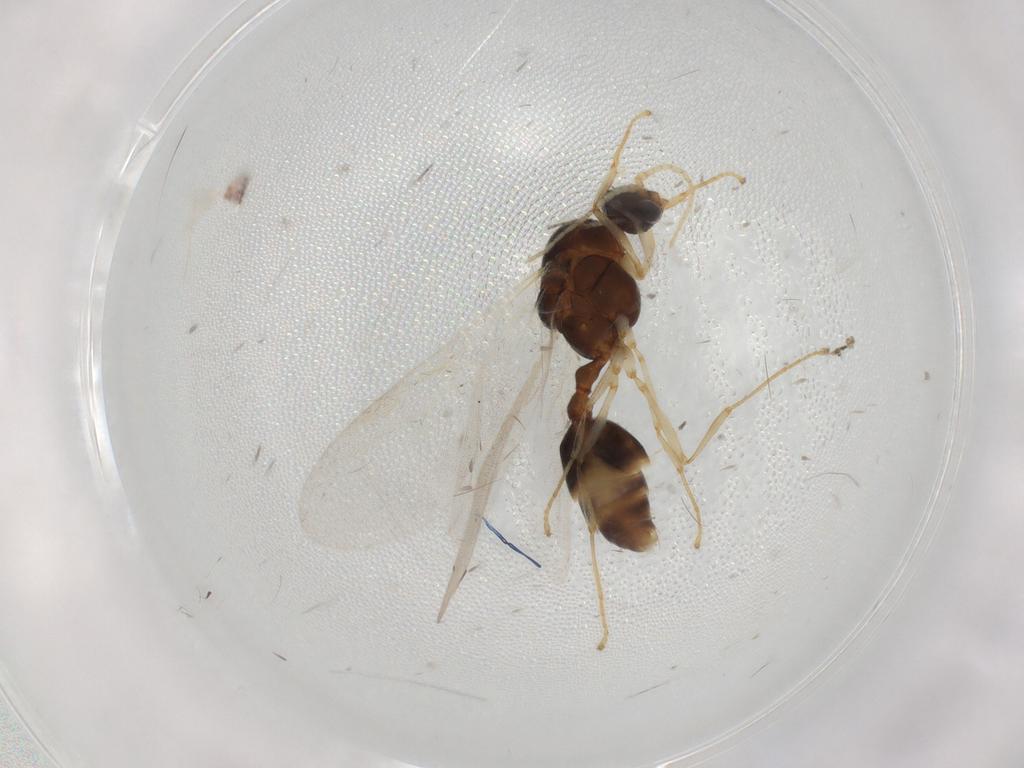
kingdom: Animalia
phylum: Arthropoda
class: Insecta
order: Hymenoptera
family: Formicidae
